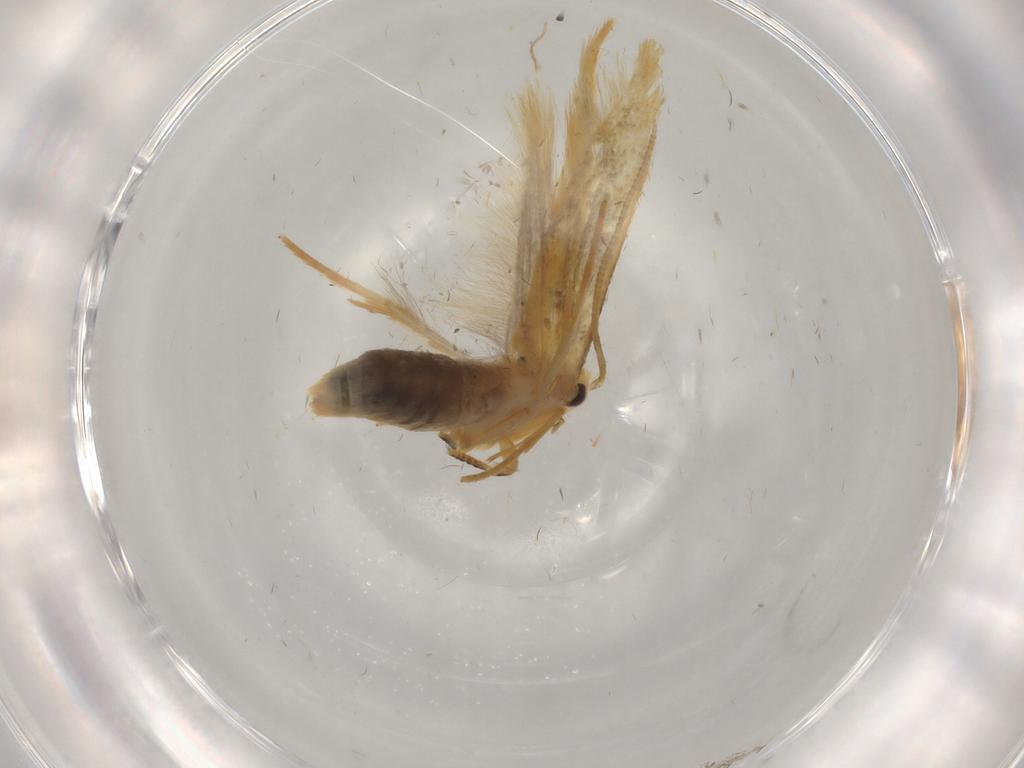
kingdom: Animalia
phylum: Arthropoda
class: Insecta
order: Lepidoptera
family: Nepticulidae
